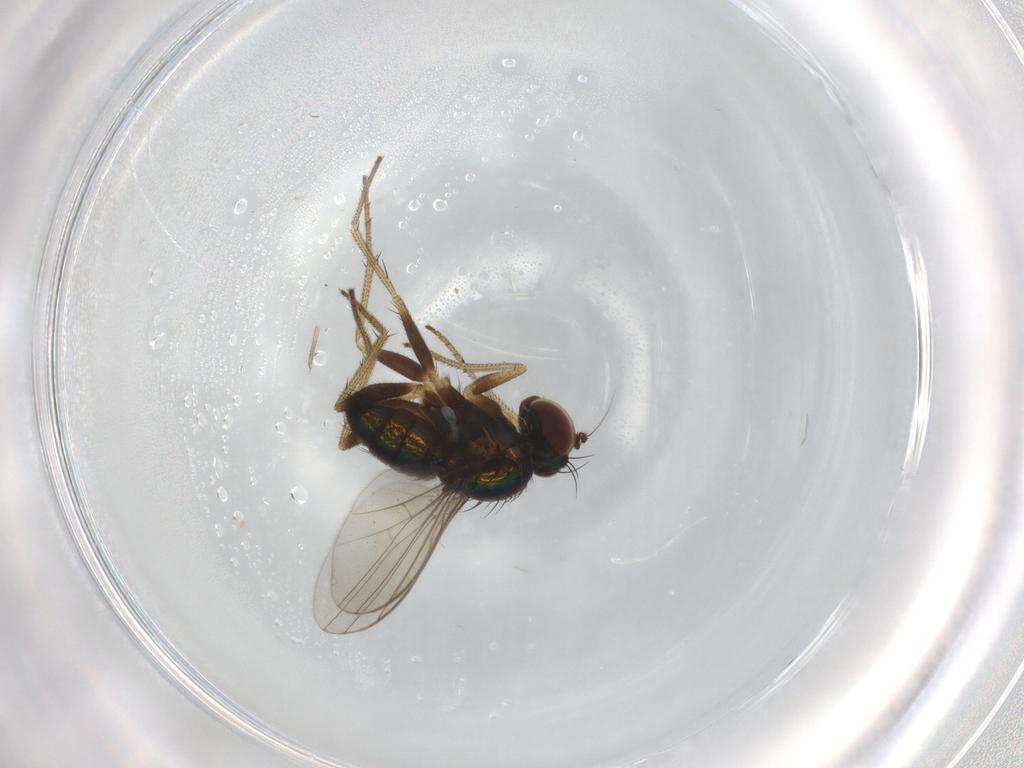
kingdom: Animalia
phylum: Arthropoda
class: Insecta
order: Diptera
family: Dolichopodidae
